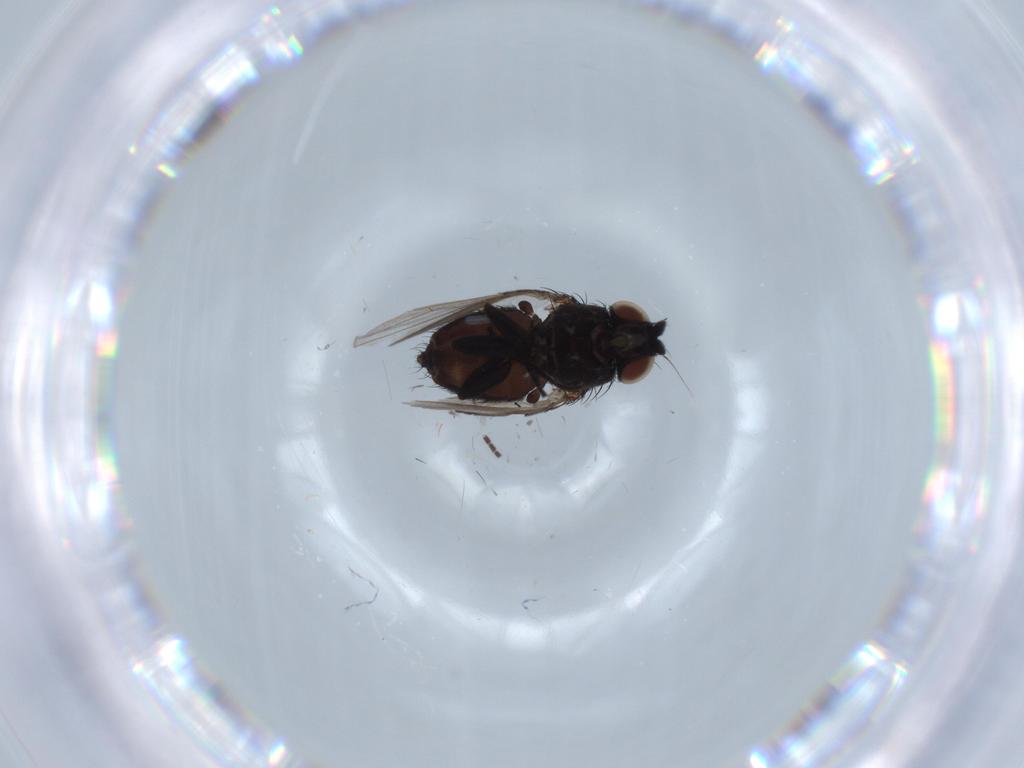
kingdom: Animalia
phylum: Arthropoda
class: Insecta
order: Diptera
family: Milichiidae
